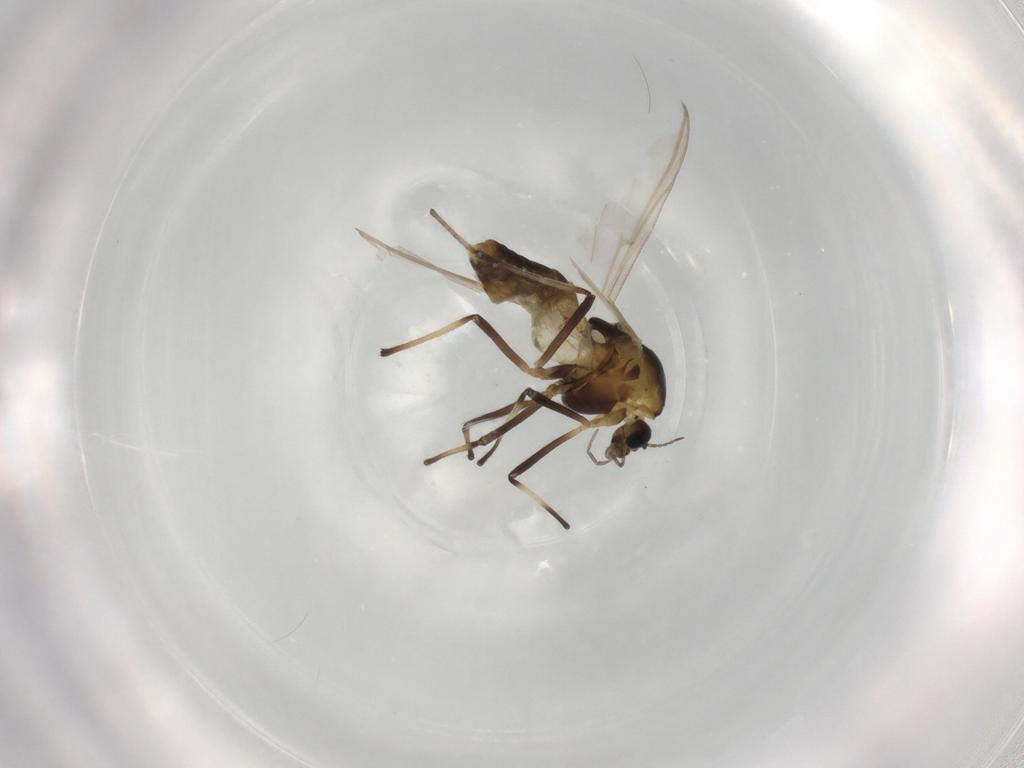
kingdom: Animalia
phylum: Arthropoda
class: Insecta
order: Diptera
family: Chironomidae
